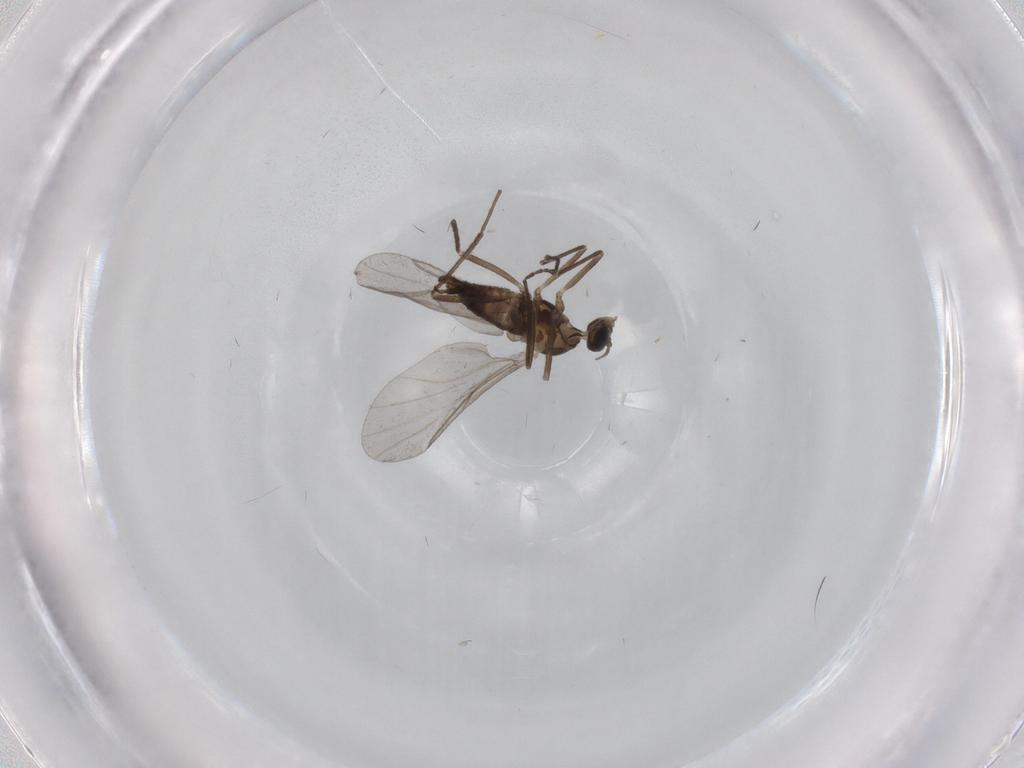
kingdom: Animalia
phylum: Arthropoda
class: Insecta
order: Diptera
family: Cecidomyiidae
